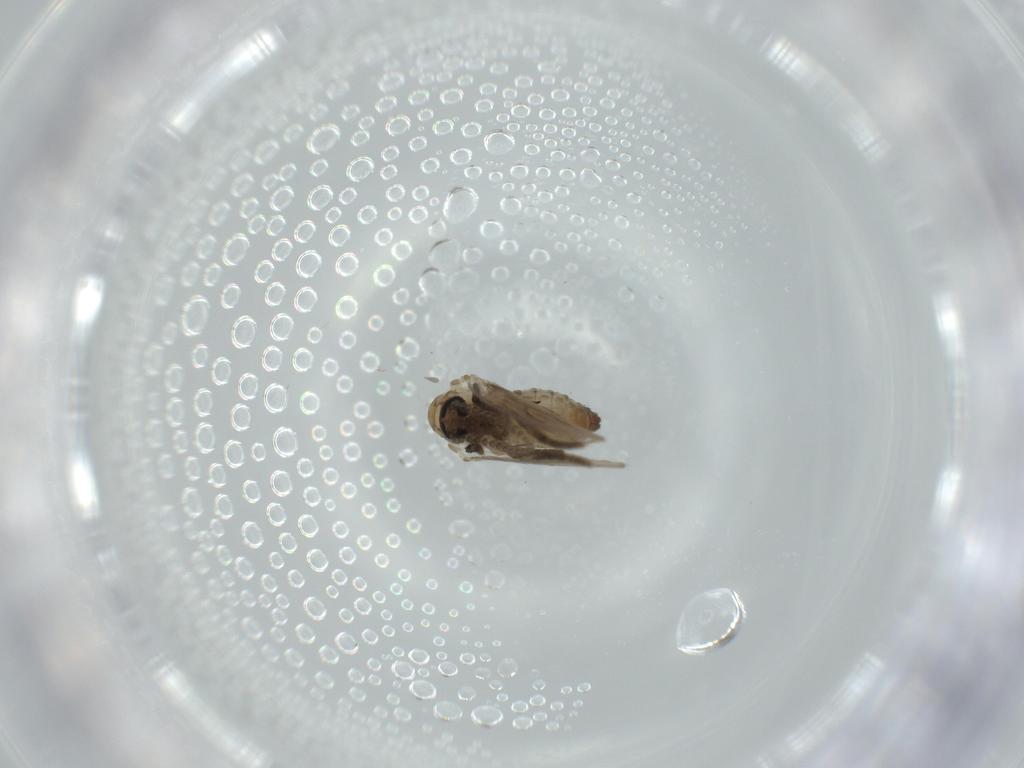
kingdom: Animalia
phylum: Arthropoda
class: Insecta
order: Diptera
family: Psychodidae
